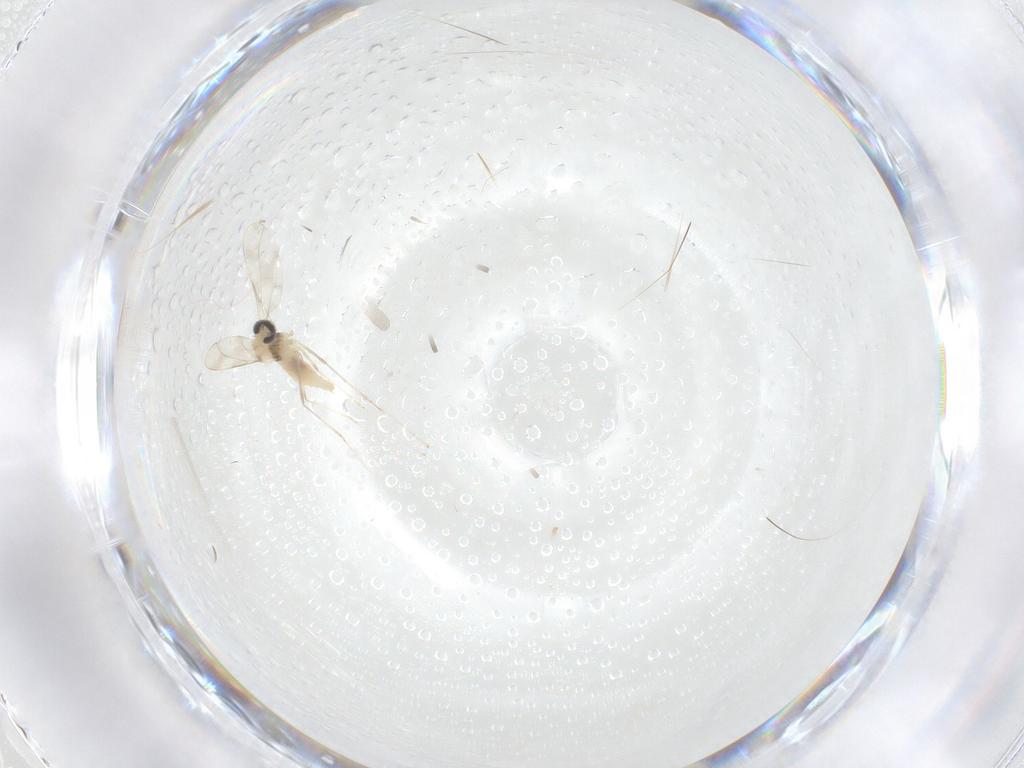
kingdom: Animalia
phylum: Arthropoda
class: Insecta
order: Diptera
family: Cecidomyiidae
